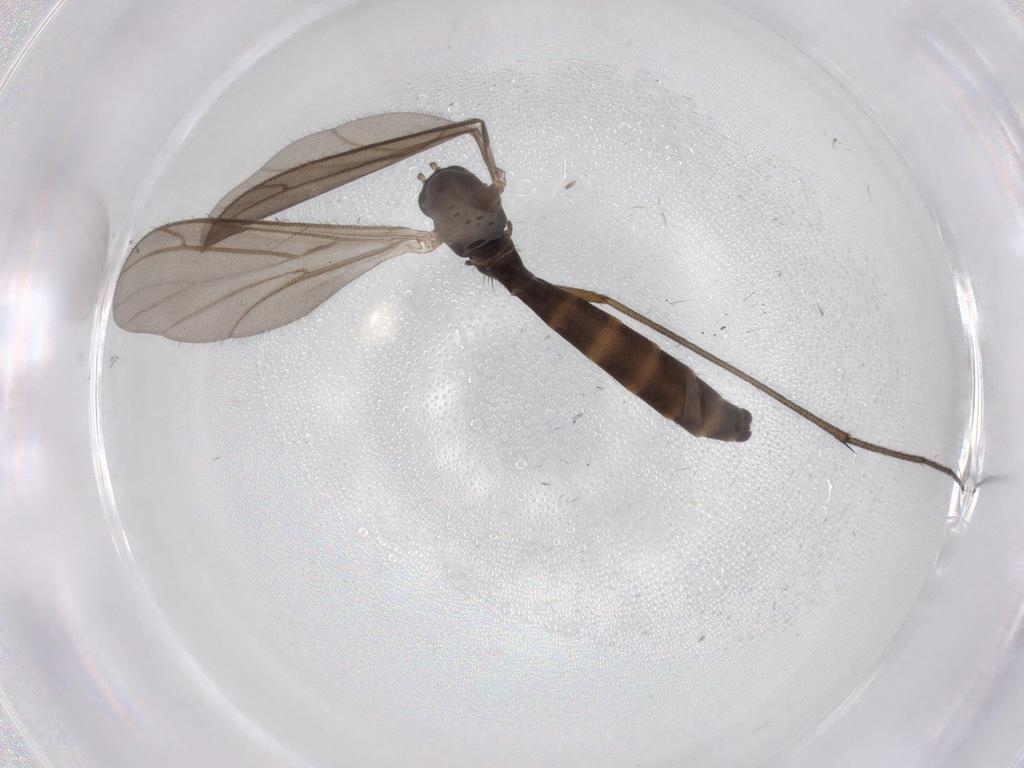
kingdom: Animalia
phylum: Arthropoda
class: Insecta
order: Diptera
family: Ditomyiidae
